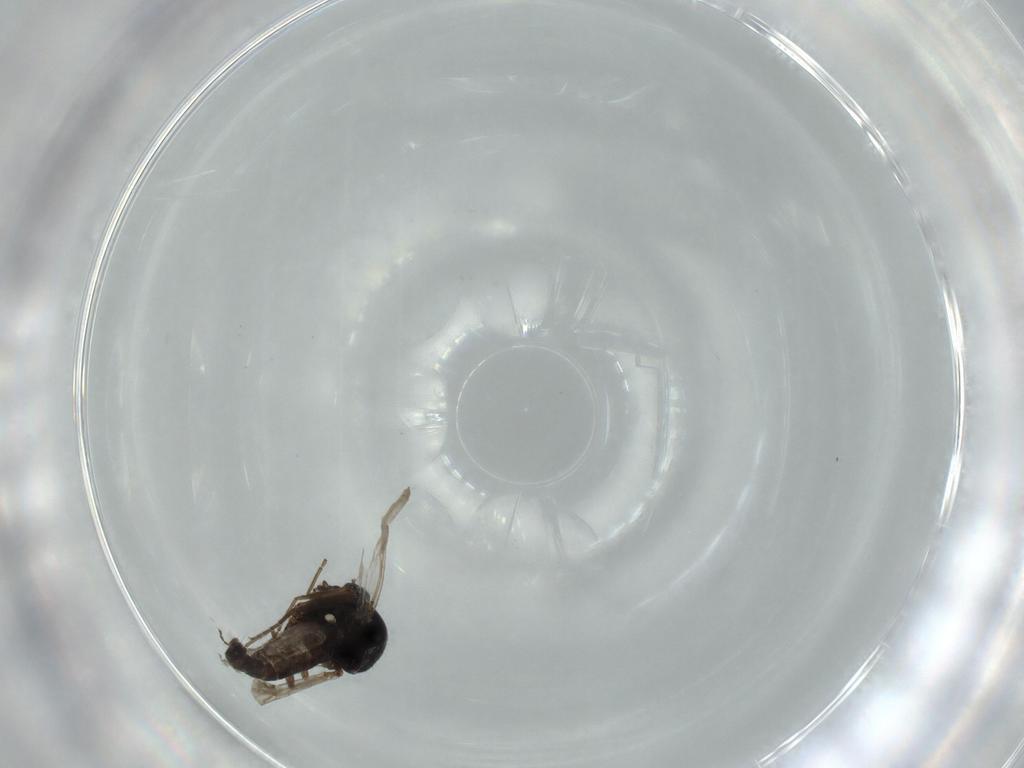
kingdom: Animalia
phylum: Arthropoda
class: Insecta
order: Diptera
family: Ceratopogonidae
